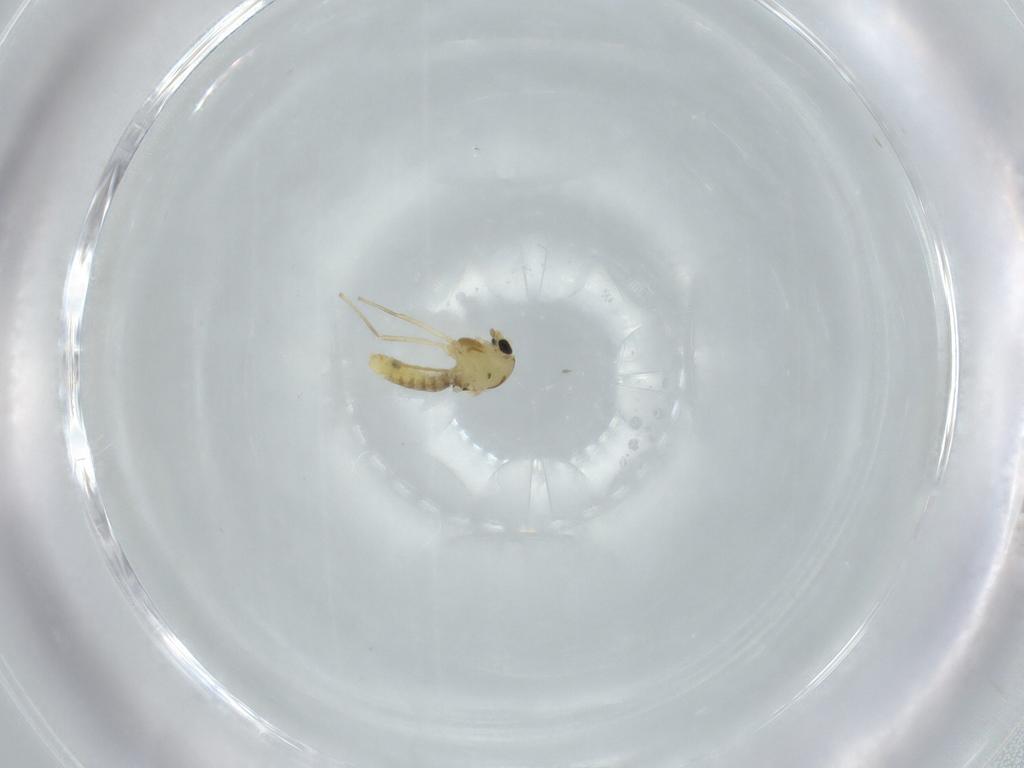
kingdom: Animalia
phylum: Arthropoda
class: Insecta
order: Diptera
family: Chironomidae
